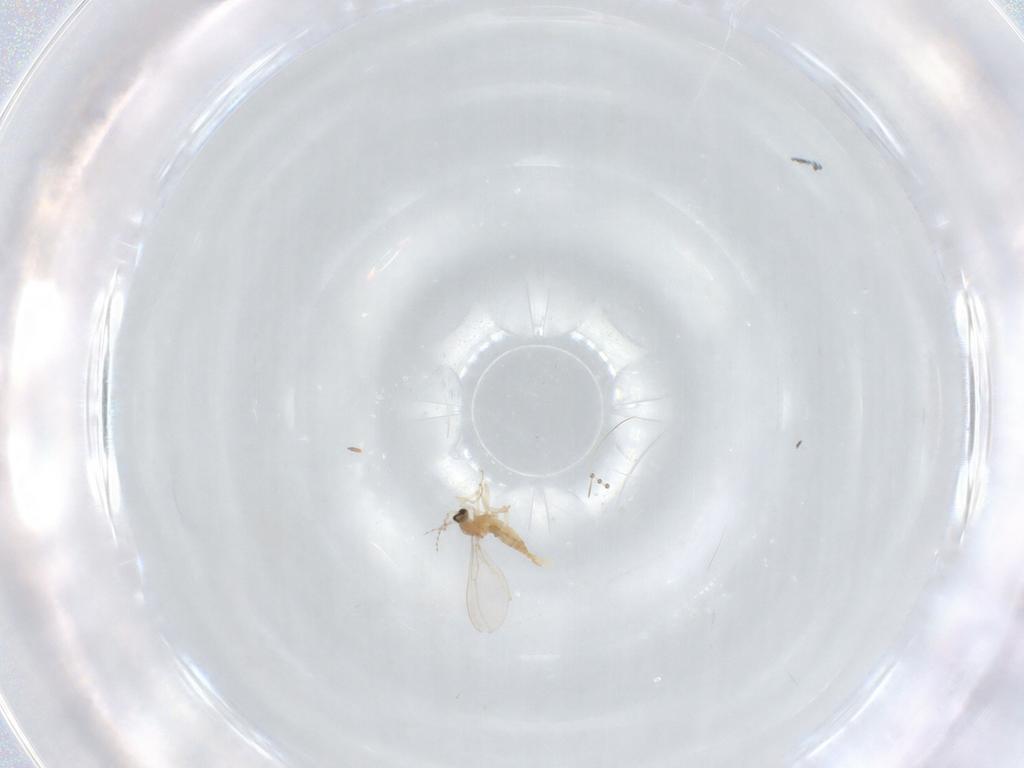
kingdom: Animalia
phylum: Arthropoda
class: Insecta
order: Diptera
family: Cecidomyiidae
